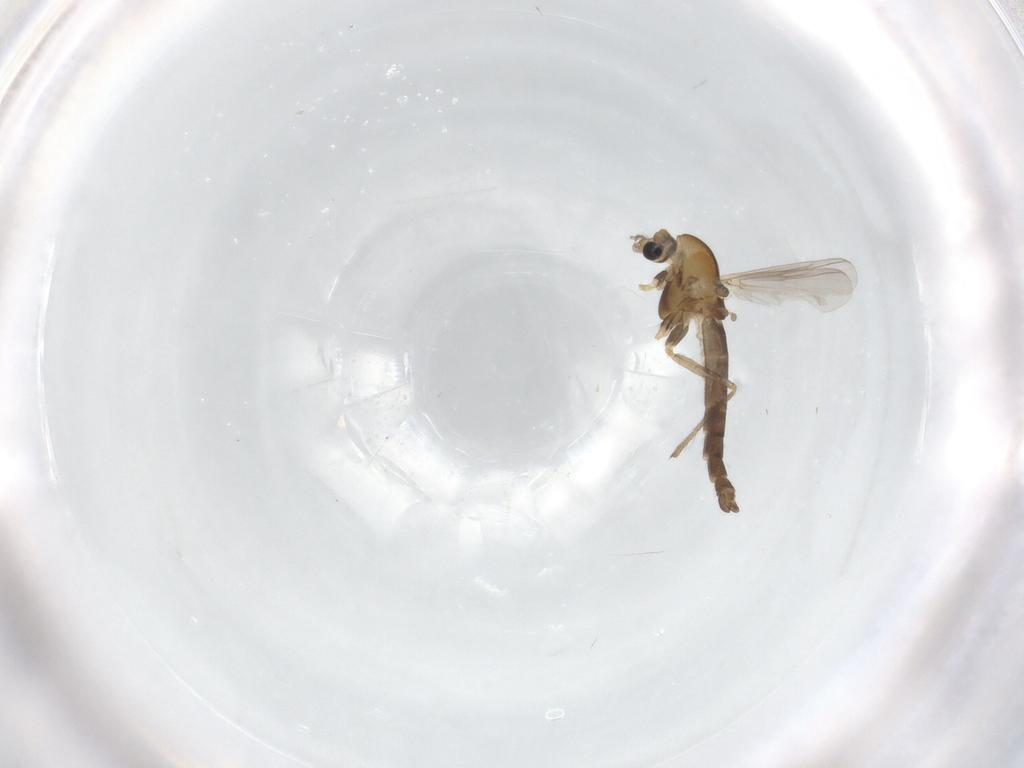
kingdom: Animalia
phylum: Arthropoda
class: Insecta
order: Diptera
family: Chironomidae
